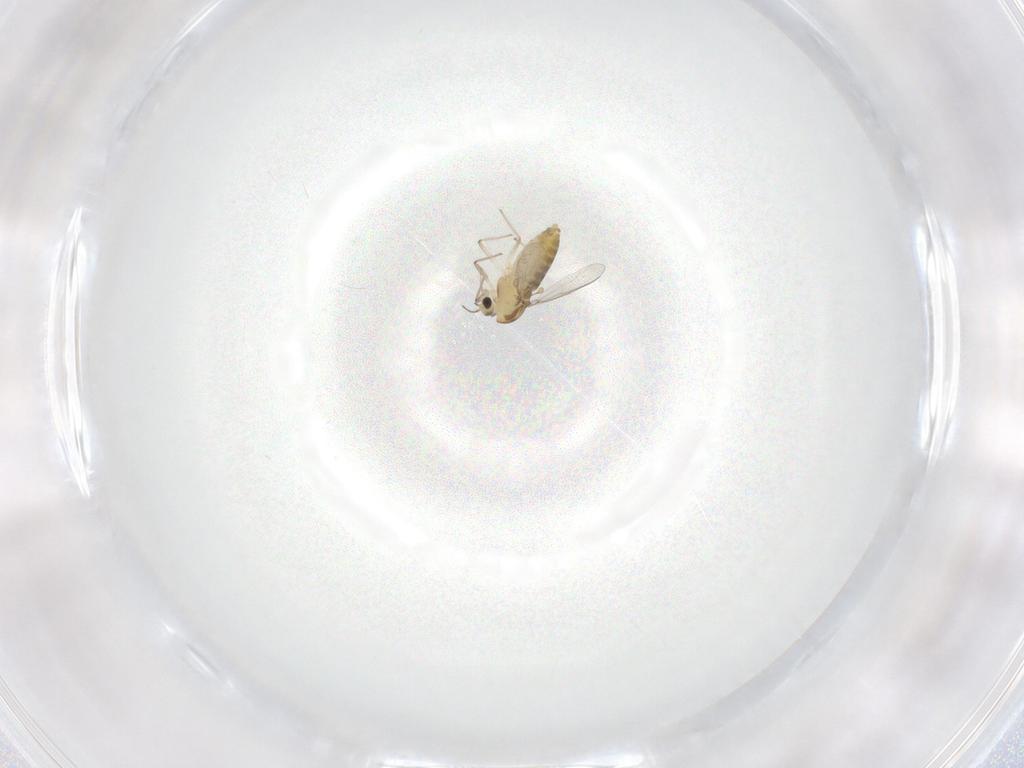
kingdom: Animalia
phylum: Arthropoda
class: Insecta
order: Diptera
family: Chironomidae
